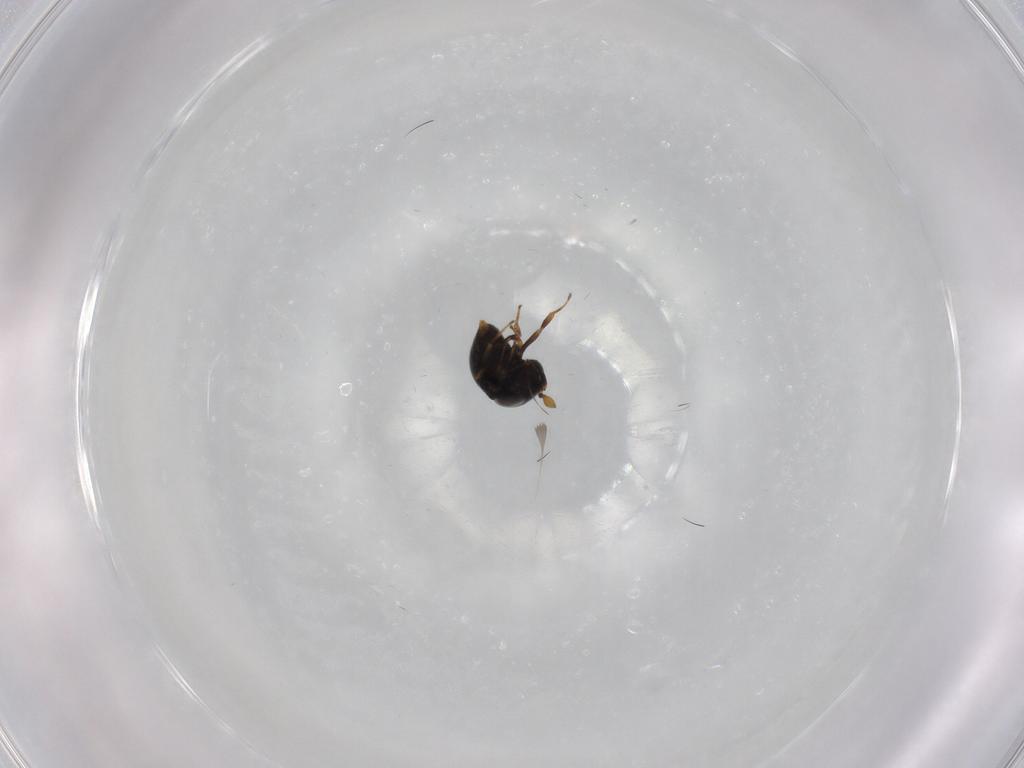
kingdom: Animalia
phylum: Arthropoda
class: Insecta
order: Hymenoptera
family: Scelionidae
